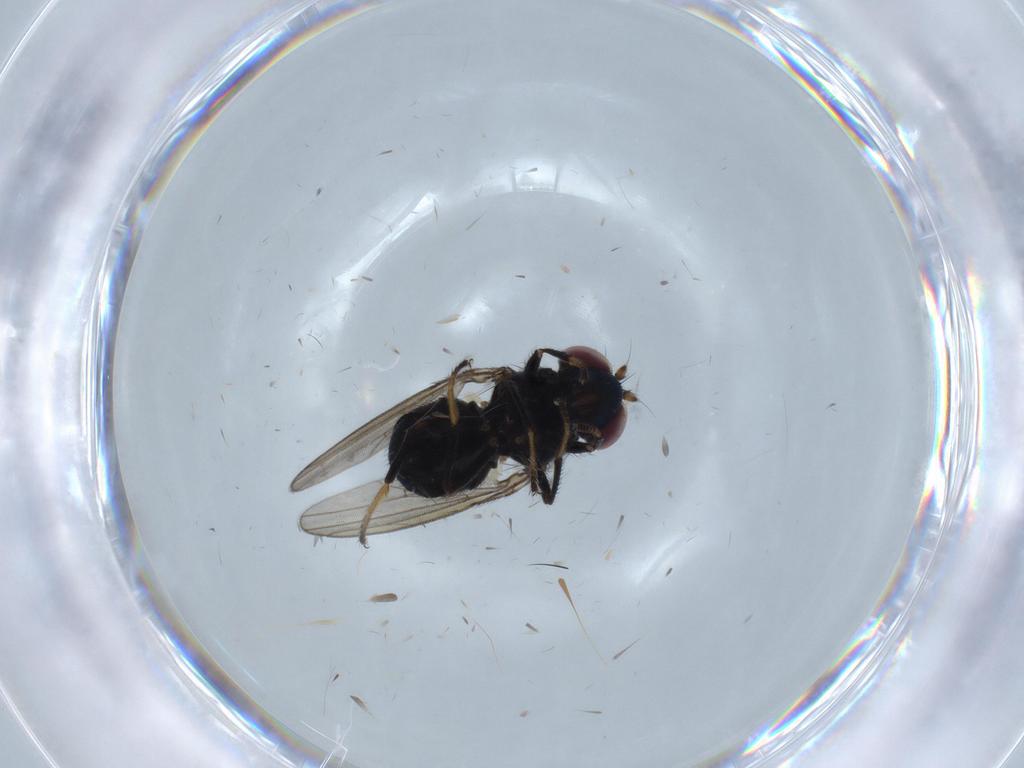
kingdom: Animalia
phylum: Arthropoda
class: Insecta
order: Diptera
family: Ephydridae
